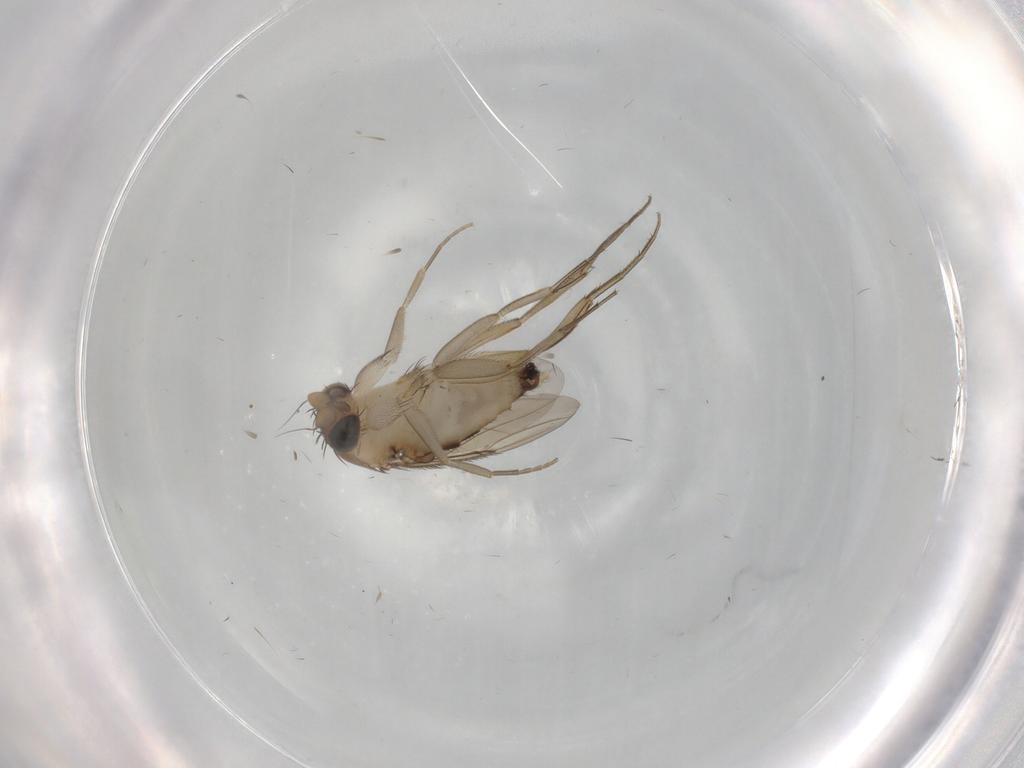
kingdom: Animalia
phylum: Arthropoda
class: Insecta
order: Diptera
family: Phoridae
